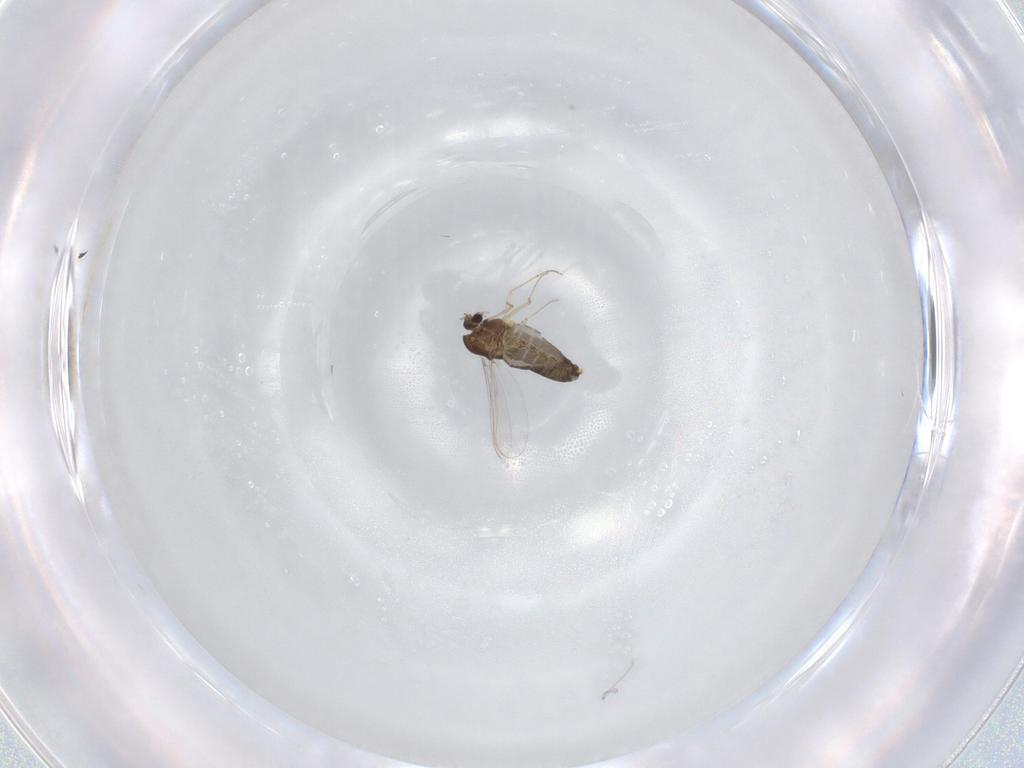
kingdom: Animalia
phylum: Arthropoda
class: Insecta
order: Diptera
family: Chironomidae
